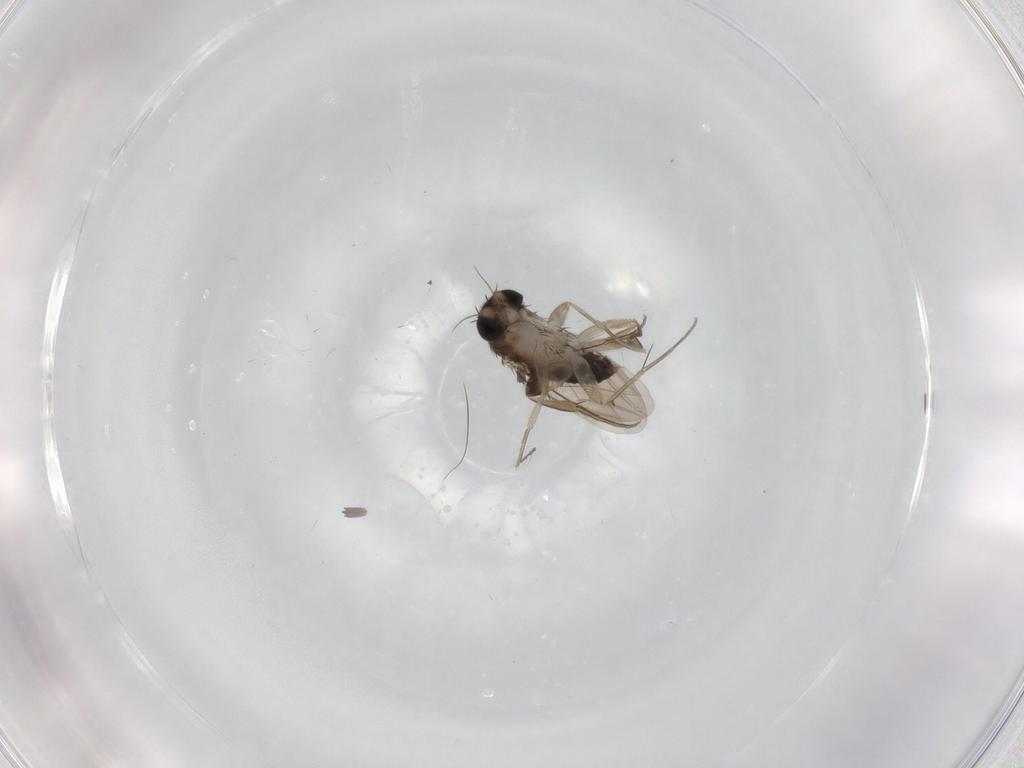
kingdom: Animalia
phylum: Arthropoda
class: Insecta
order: Diptera
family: Phoridae
